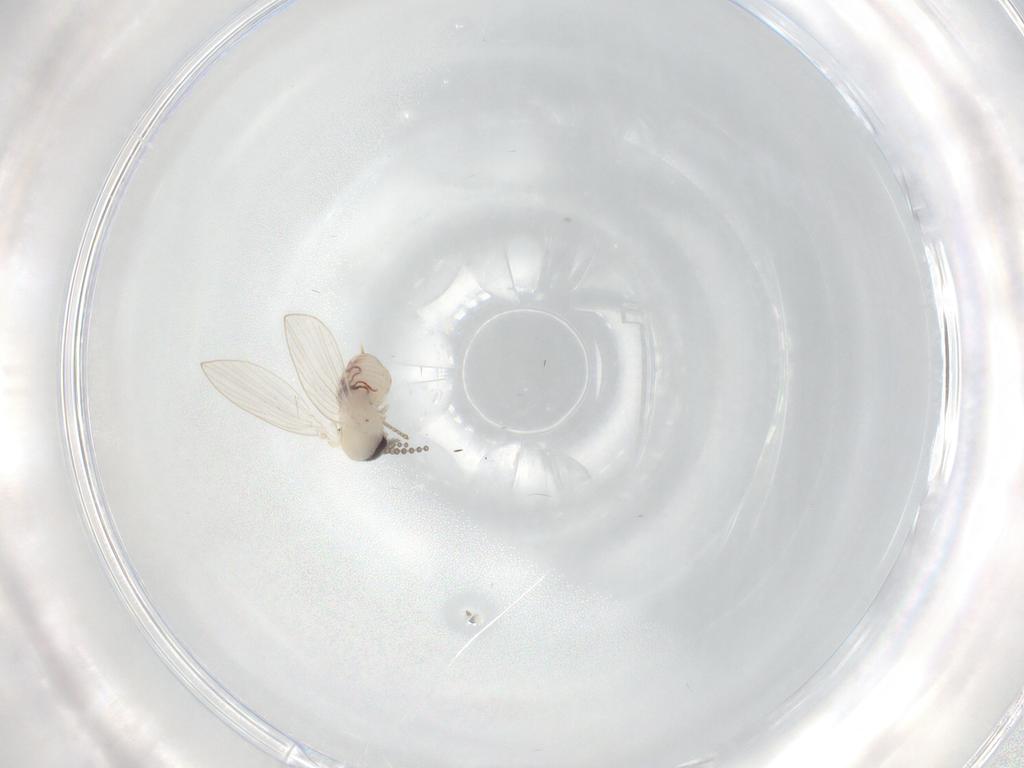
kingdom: Animalia
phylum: Arthropoda
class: Insecta
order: Diptera
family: Psychodidae
